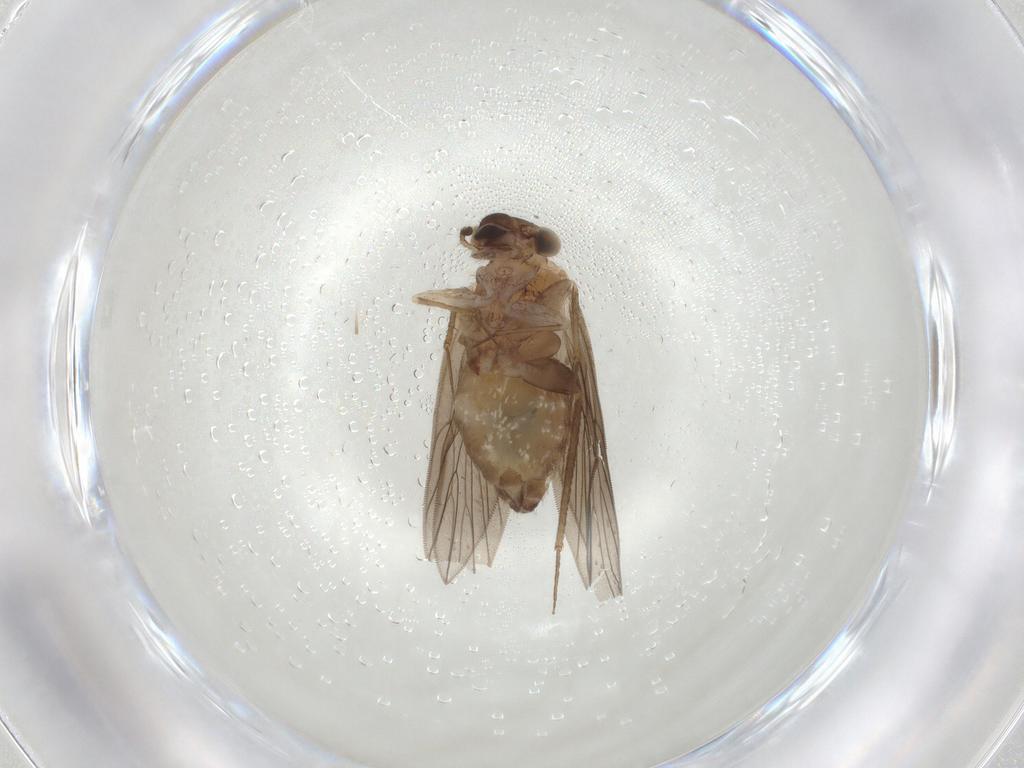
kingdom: Animalia
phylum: Arthropoda
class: Insecta
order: Psocodea
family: Lepidopsocidae
